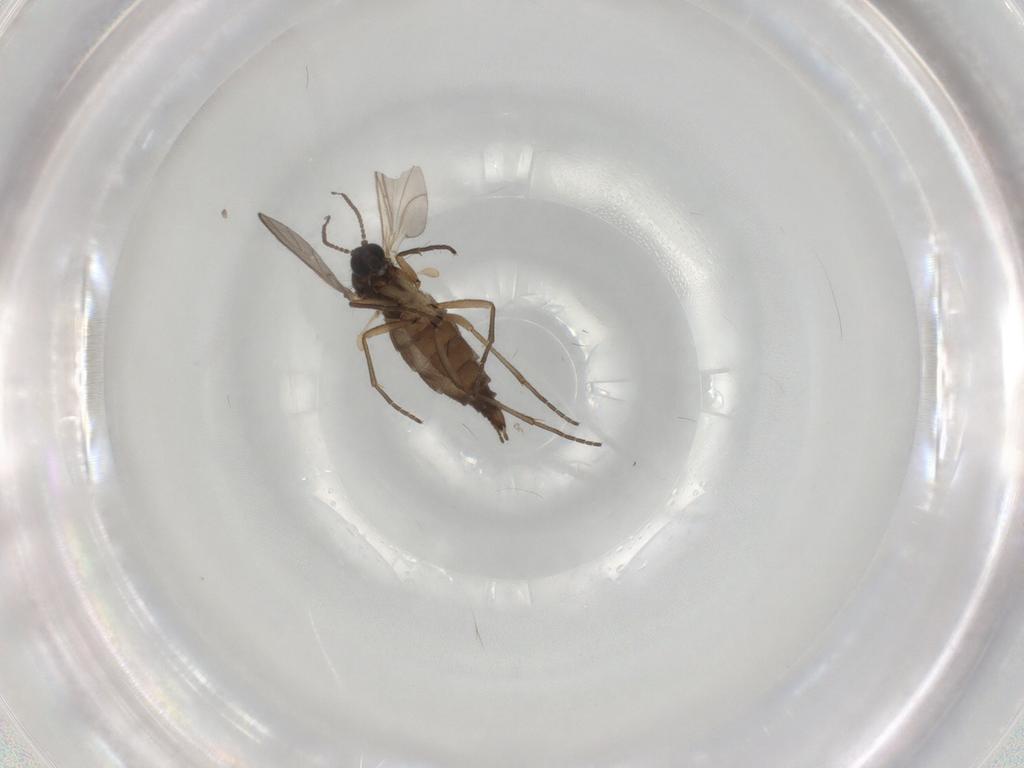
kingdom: Animalia
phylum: Arthropoda
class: Insecta
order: Diptera
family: Sciaridae
